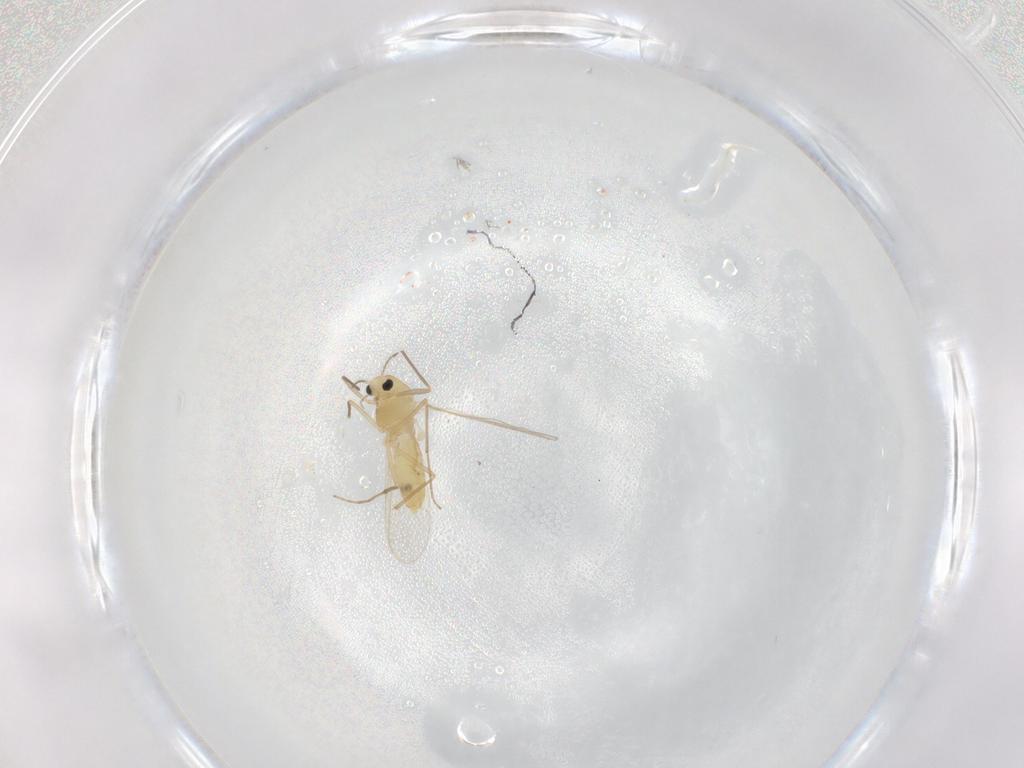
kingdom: Animalia
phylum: Arthropoda
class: Insecta
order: Diptera
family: Chironomidae
